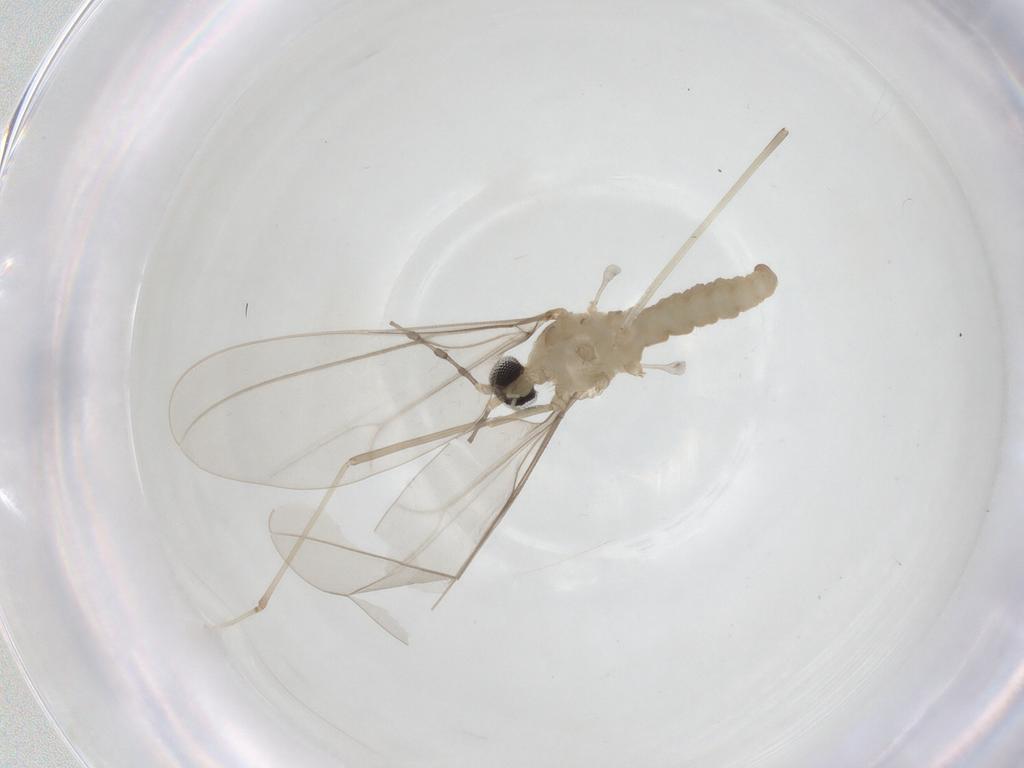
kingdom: Animalia
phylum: Arthropoda
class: Insecta
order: Diptera
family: Cecidomyiidae
